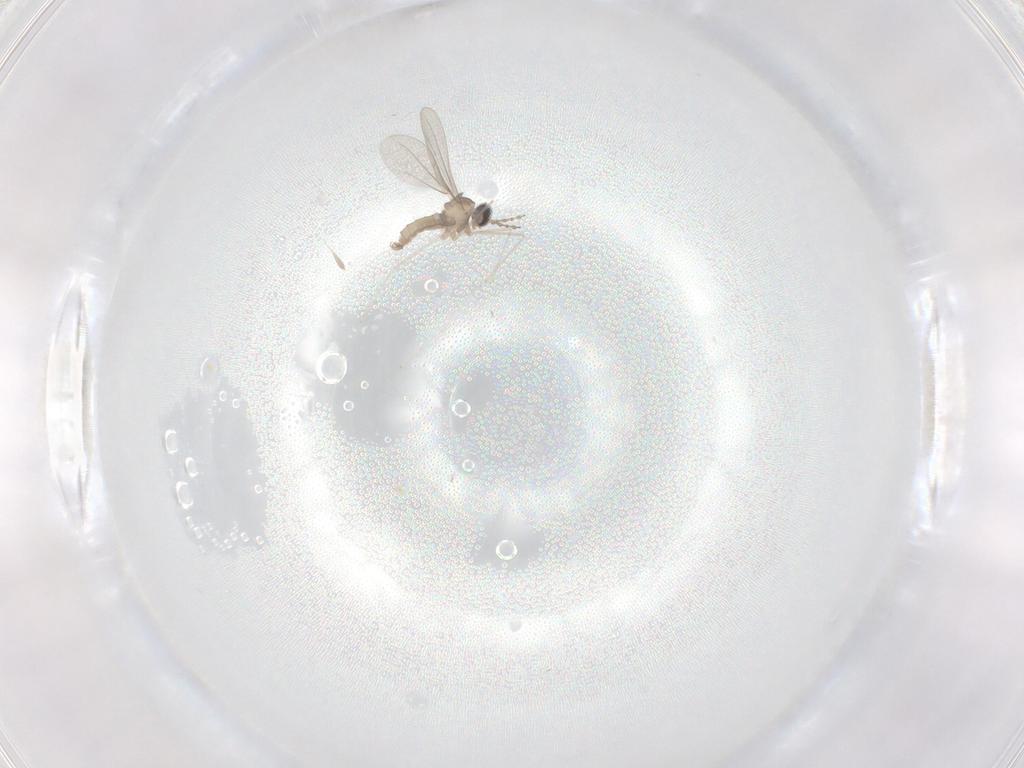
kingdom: Animalia
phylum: Arthropoda
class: Insecta
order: Diptera
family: Cecidomyiidae
